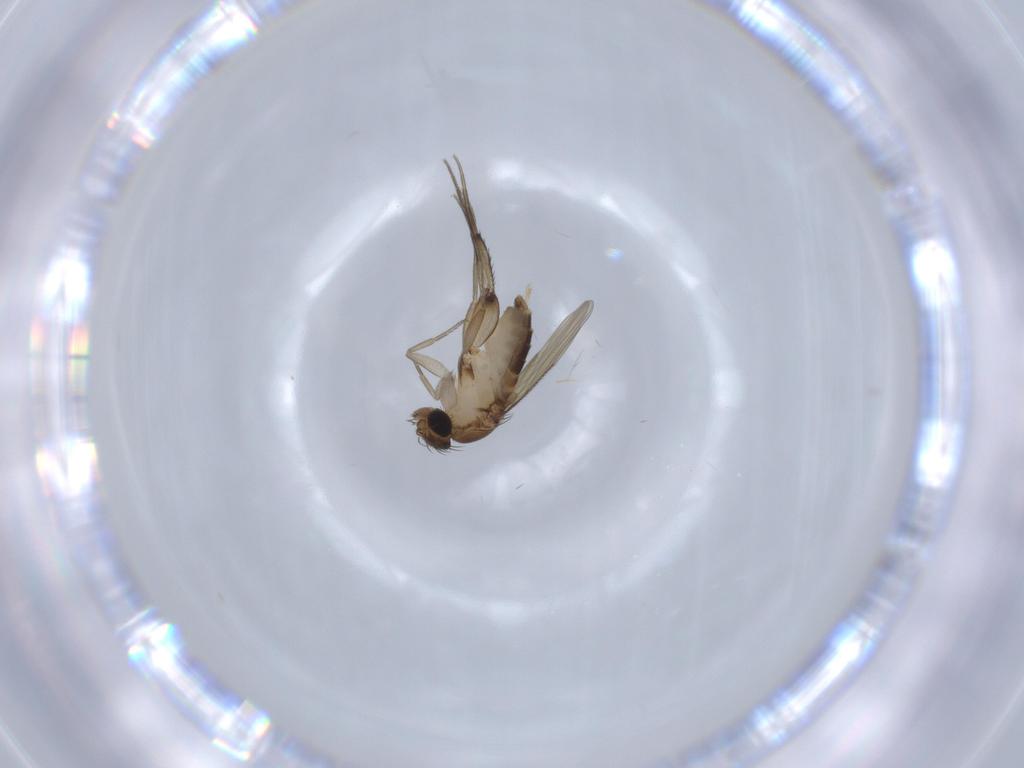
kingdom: Animalia
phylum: Arthropoda
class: Insecta
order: Diptera
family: Phoridae
